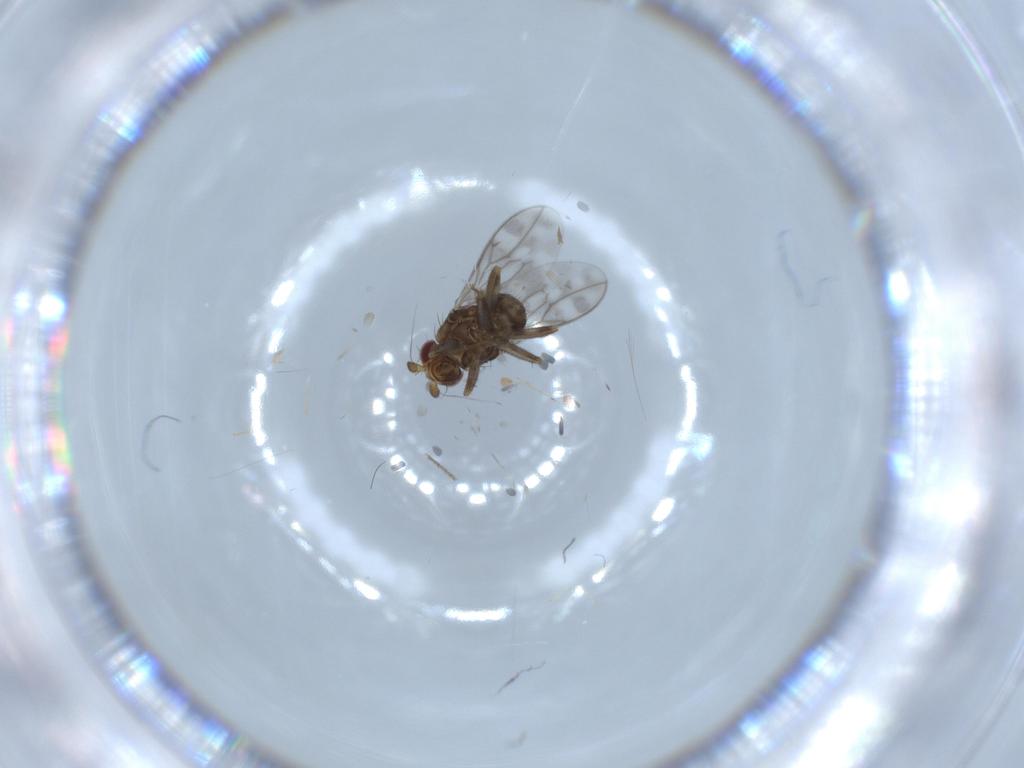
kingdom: Animalia
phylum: Arthropoda
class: Insecta
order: Diptera
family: Sphaeroceridae
